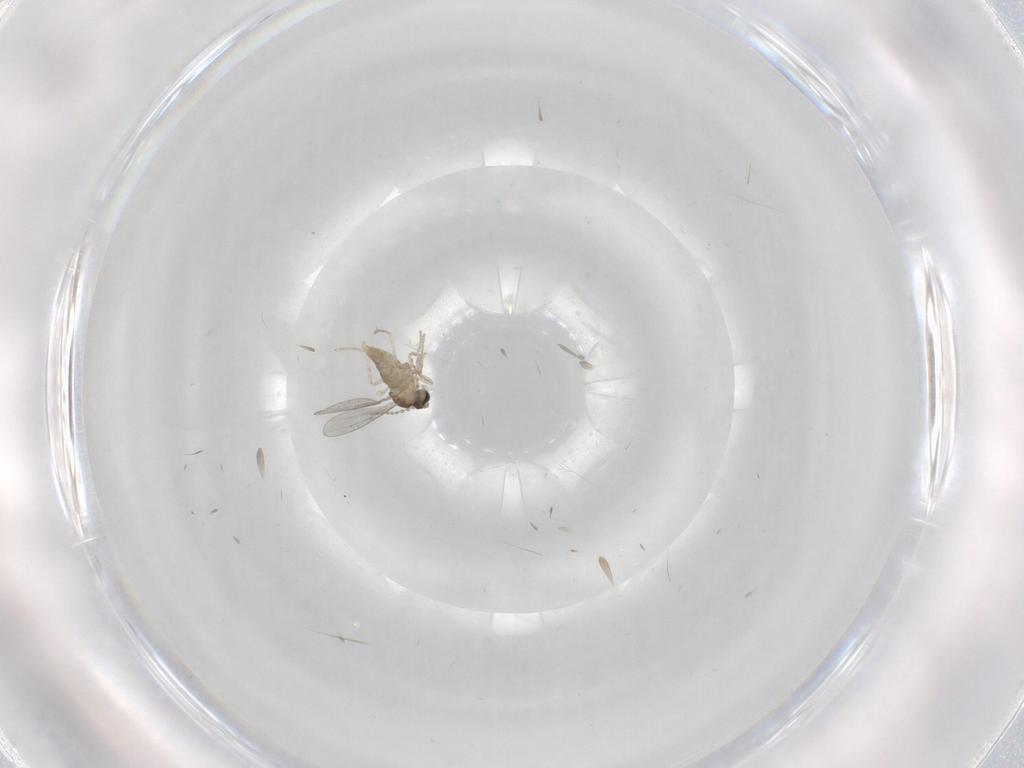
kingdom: Animalia
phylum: Arthropoda
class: Insecta
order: Diptera
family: Cecidomyiidae
